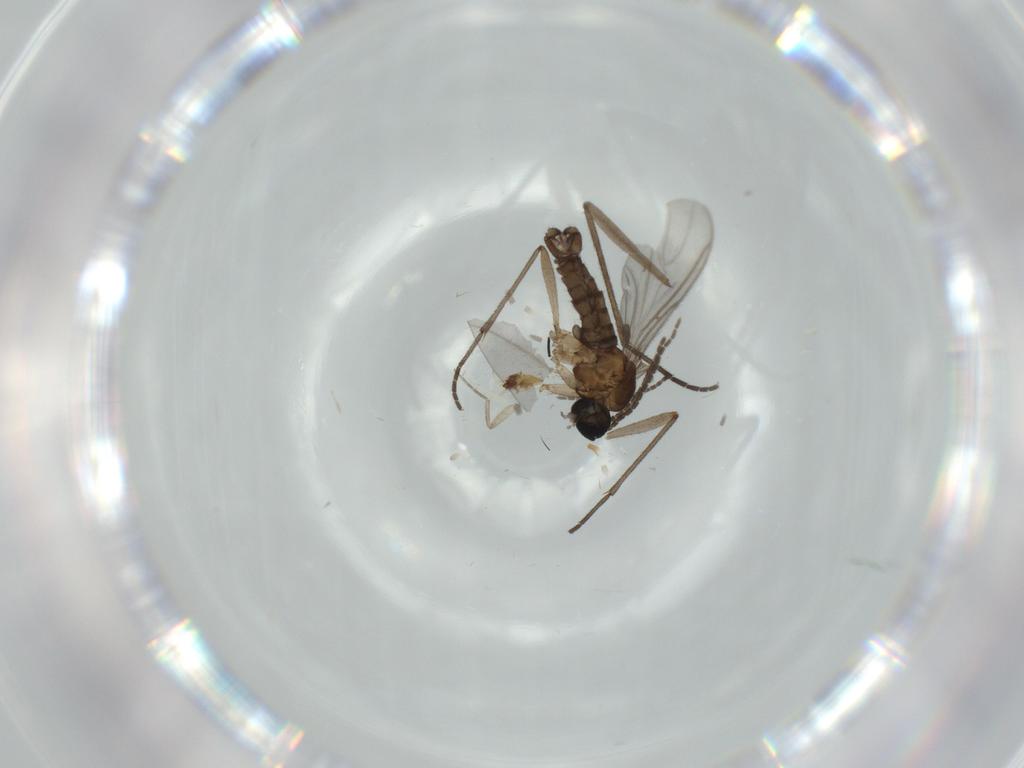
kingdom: Animalia
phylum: Arthropoda
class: Insecta
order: Diptera
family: Sciaridae
